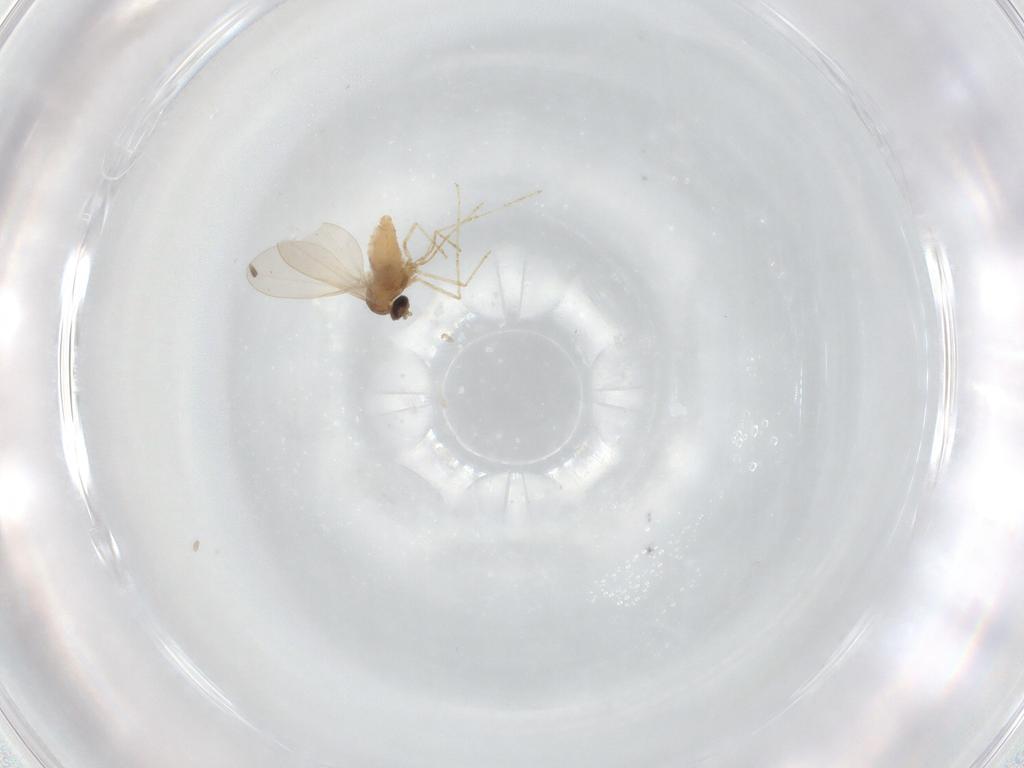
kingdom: Animalia
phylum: Arthropoda
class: Insecta
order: Diptera
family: Cecidomyiidae
